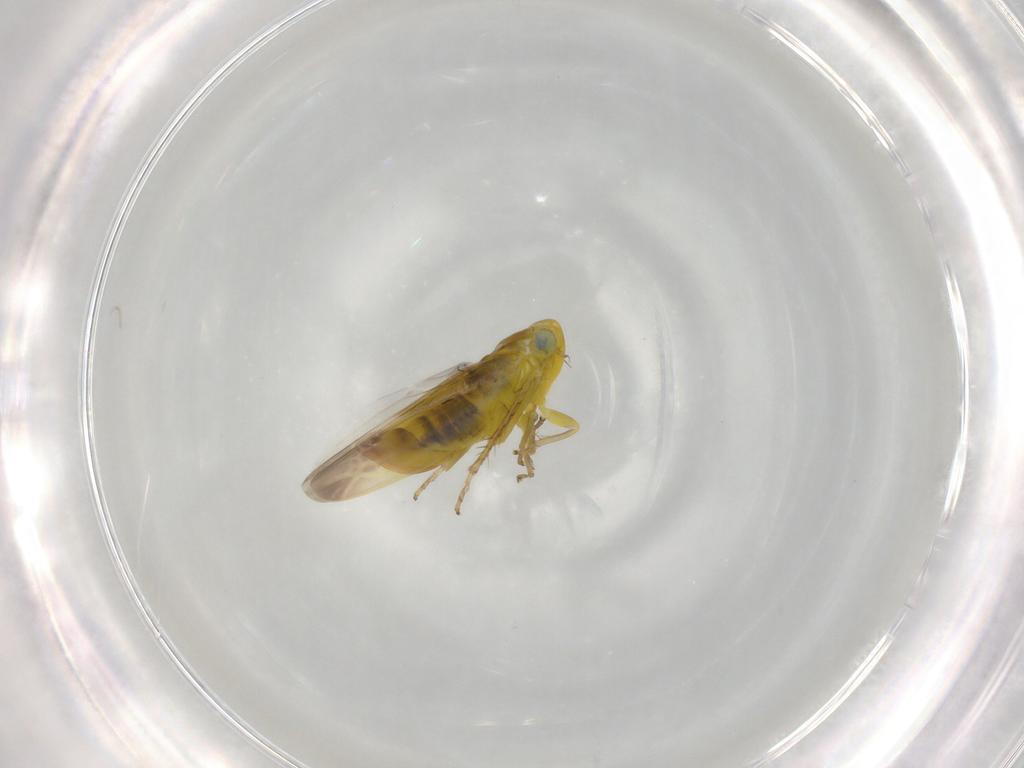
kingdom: Animalia
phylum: Arthropoda
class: Insecta
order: Hemiptera
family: Cicadellidae
